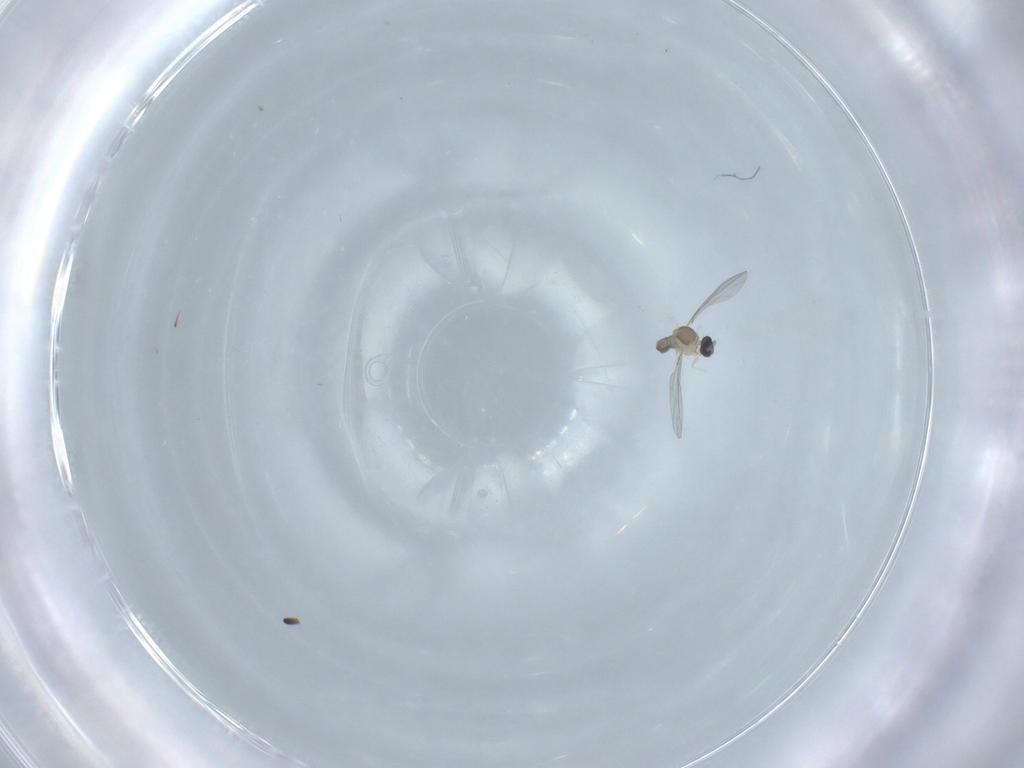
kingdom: Animalia
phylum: Arthropoda
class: Insecta
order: Diptera
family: Cecidomyiidae
